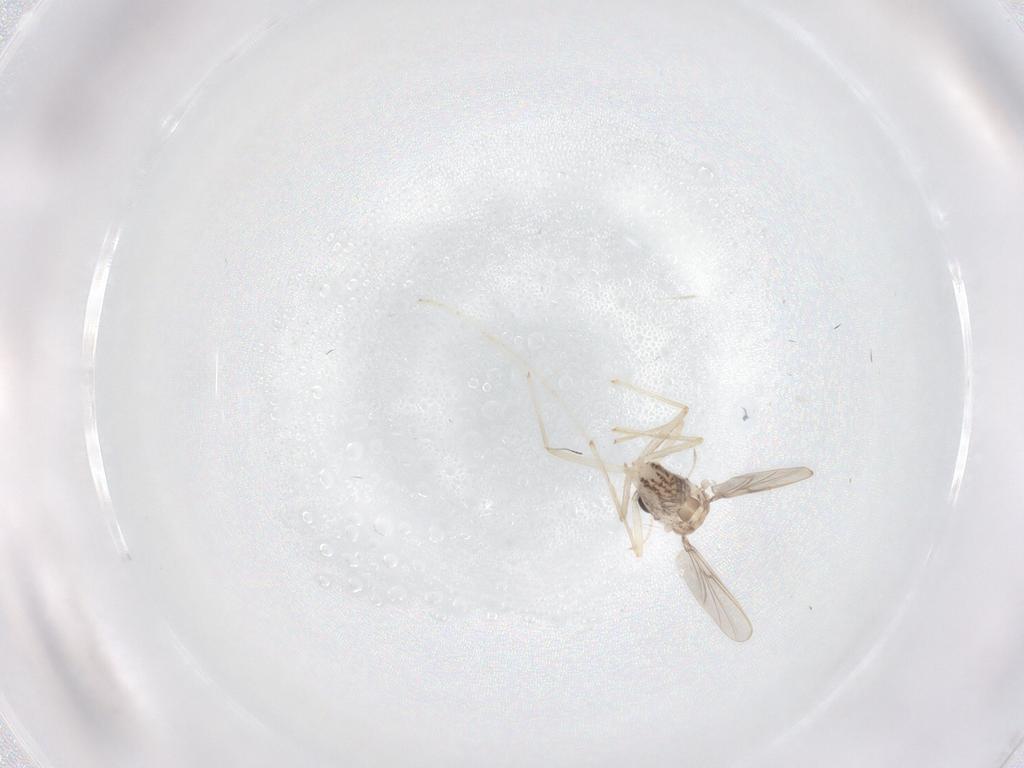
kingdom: Animalia
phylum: Arthropoda
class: Insecta
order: Diptera
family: Chironomidae
